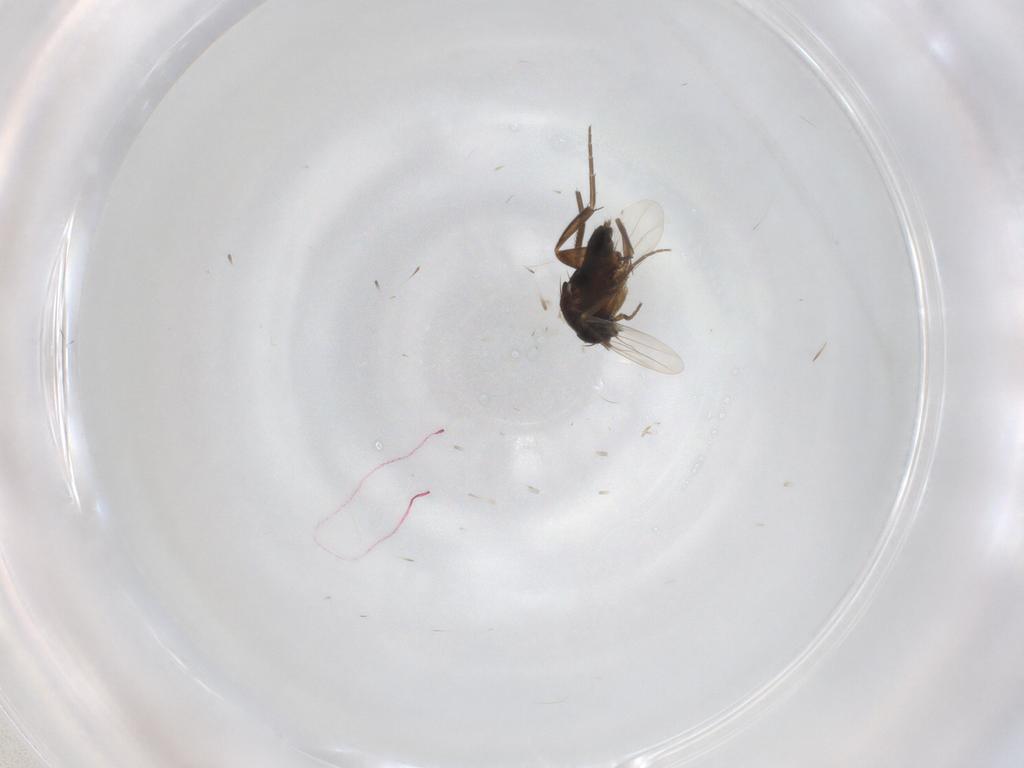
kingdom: Animalia
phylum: Arthropoda
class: Insecta
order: Diptera
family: Phoridae
